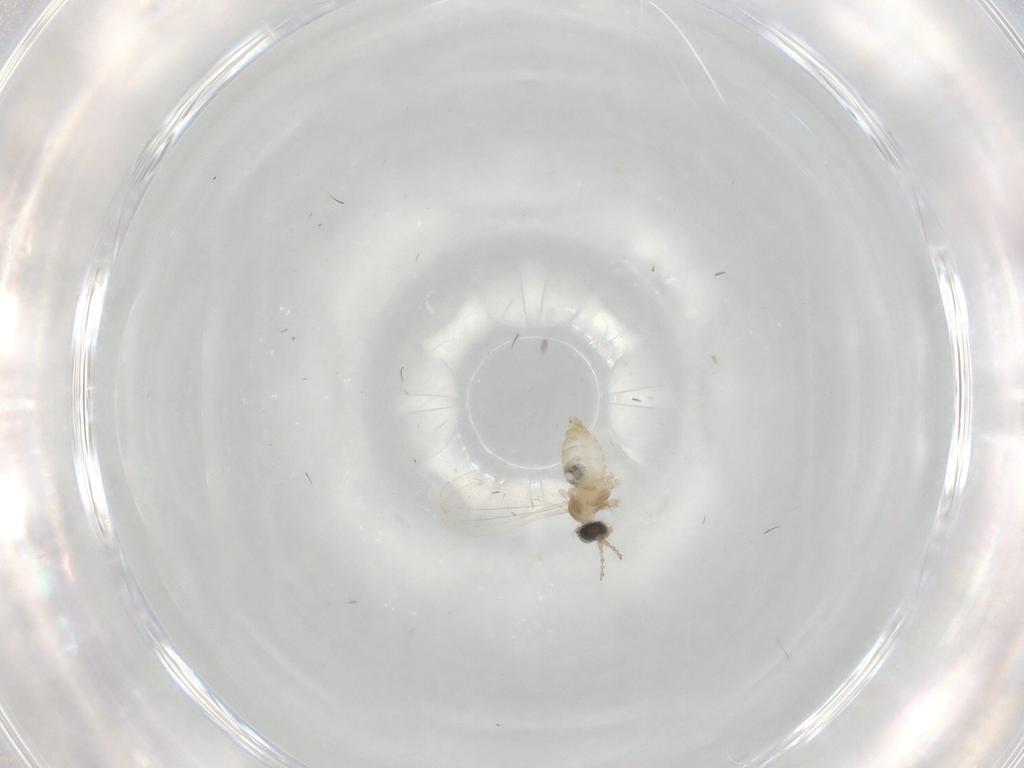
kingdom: Animalia
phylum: Arthropoda
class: Insecta
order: Diptera
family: Cecidomyiidae
